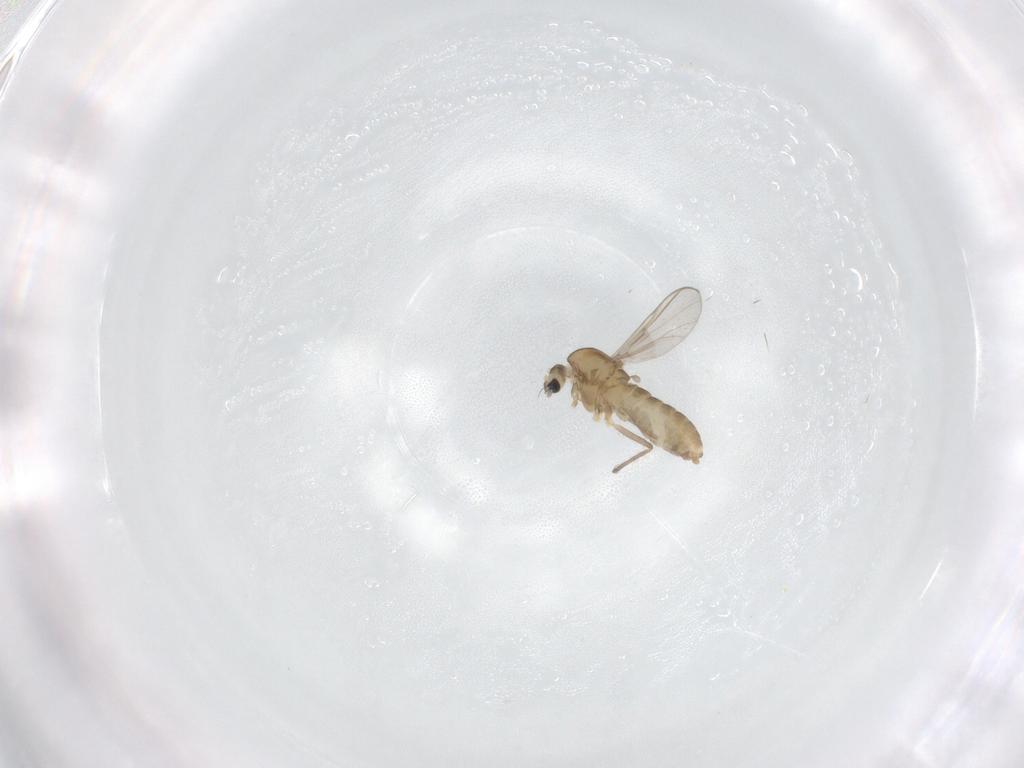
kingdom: Animalia
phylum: Arthropoda
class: Insecta
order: Diptera
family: Chironomidae
